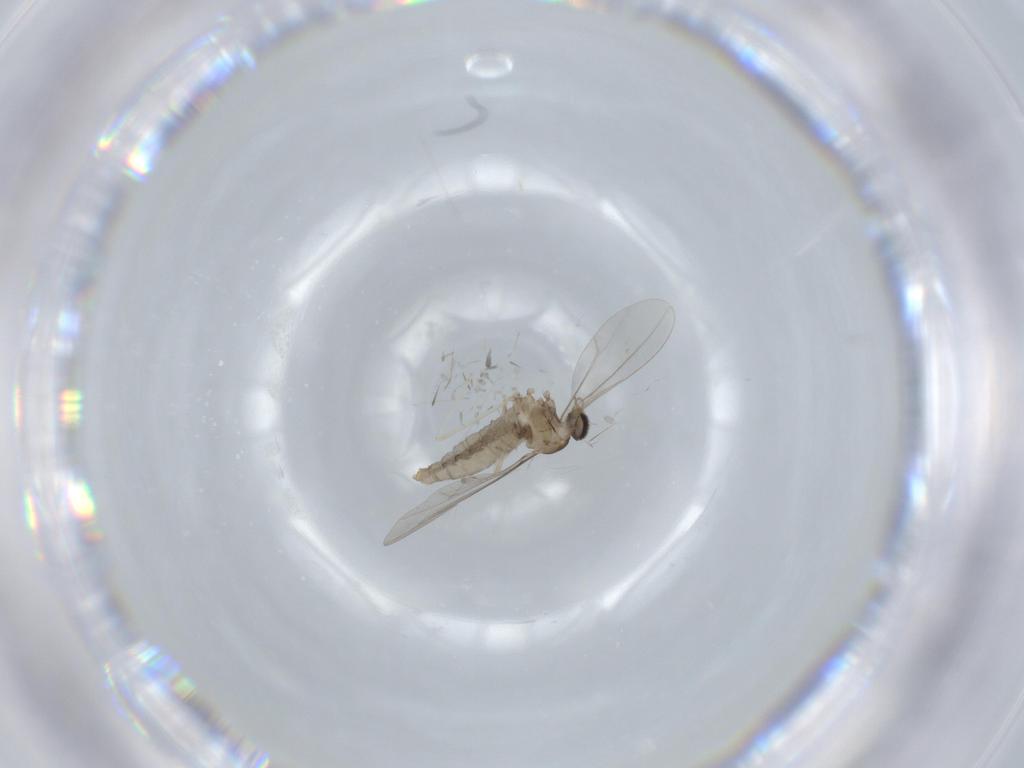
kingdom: Animalia
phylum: Arthropoda
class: Insecta
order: Diptera
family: Cecidomyiidae
